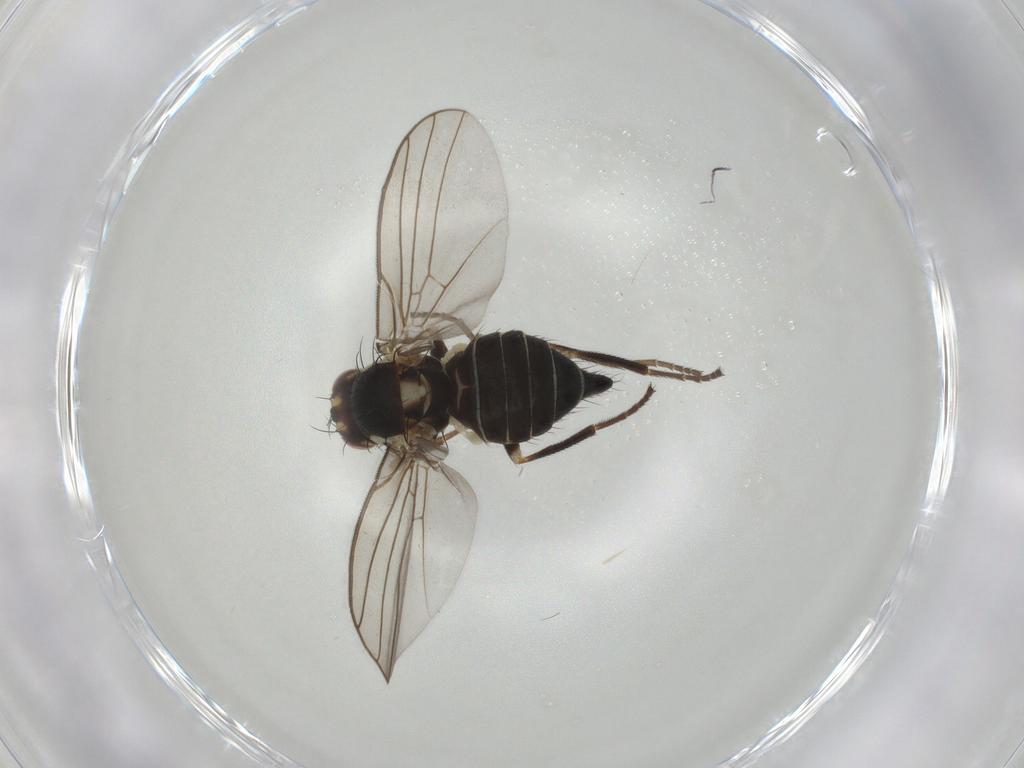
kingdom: Animalia
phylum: Arthropoda
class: Insecta
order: Diptera
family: Agromyzidae
